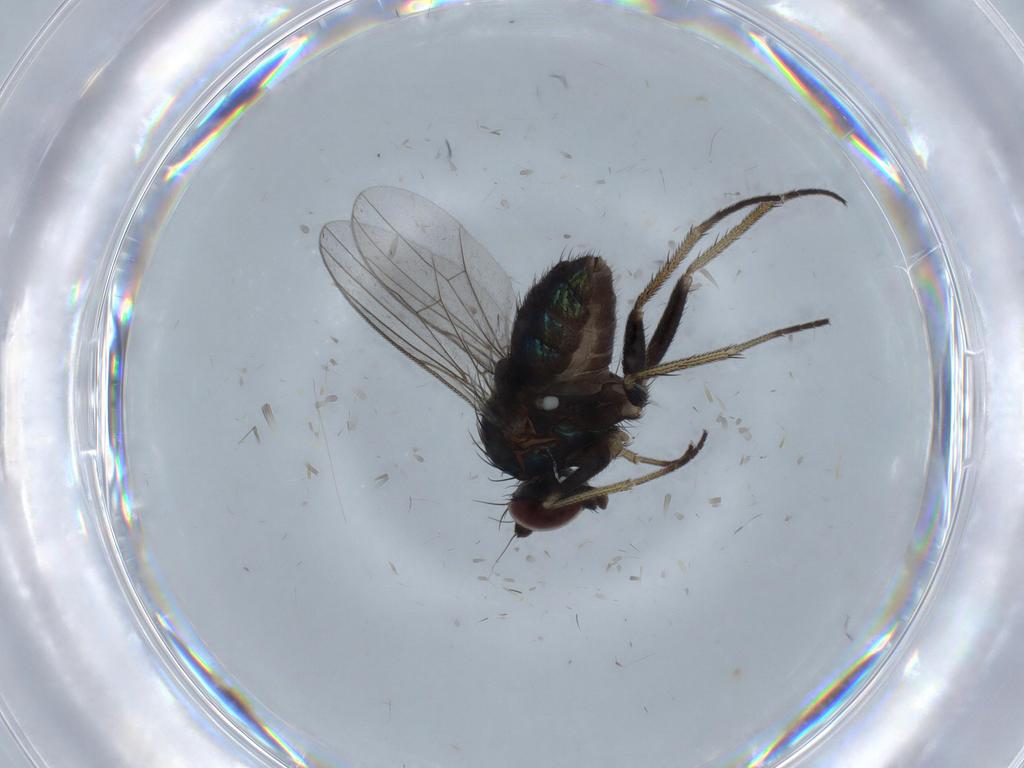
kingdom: Animalia
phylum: Arthropoda
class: Insecta
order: Diptera
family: Dolichopodidae
